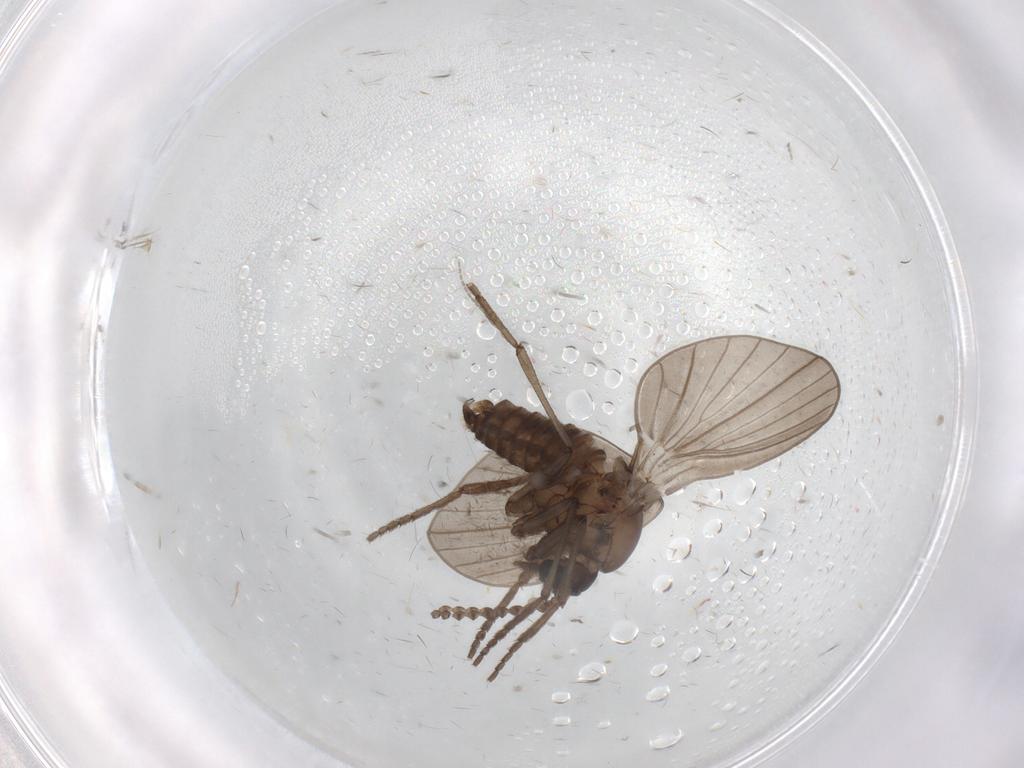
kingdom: Animalia
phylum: Arthropoda
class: Insecta
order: Diptera
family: Psychodidae
